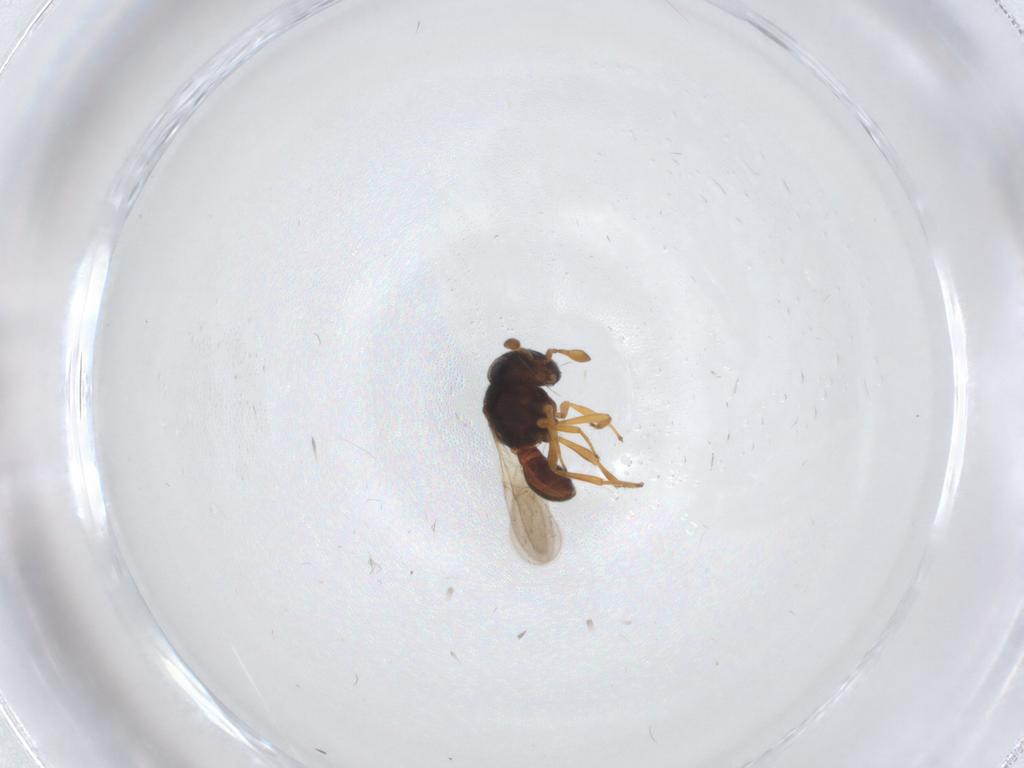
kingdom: Animalia
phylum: Arthropoda
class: Insecta
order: Hymenoptera
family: Scelionidae
